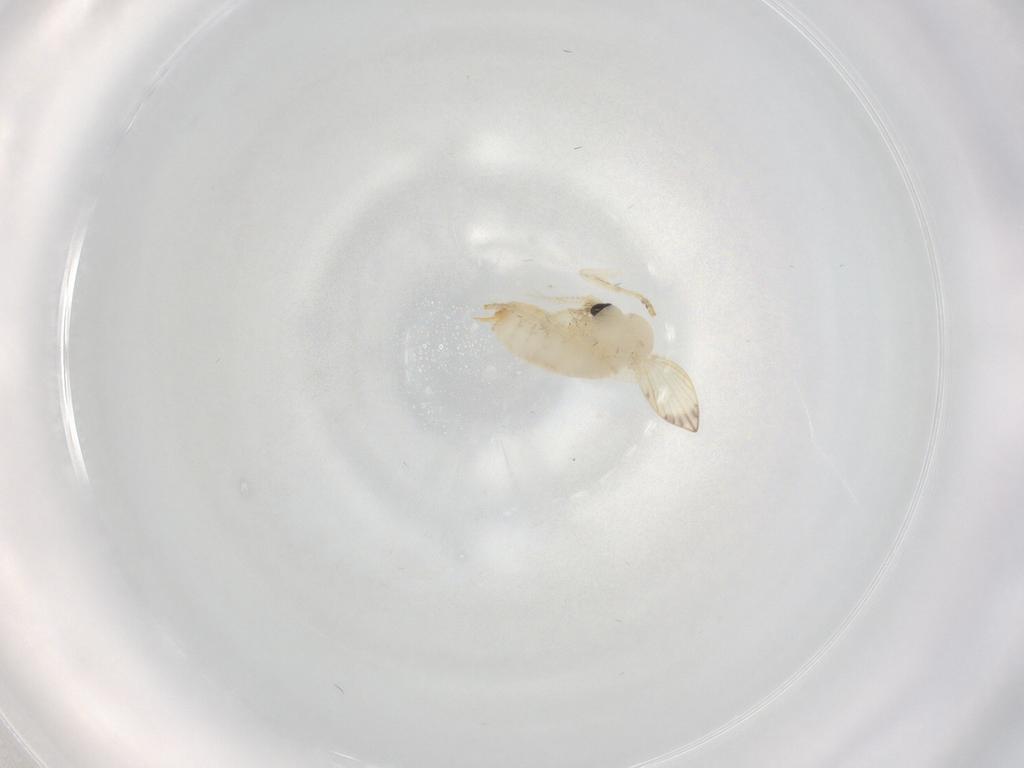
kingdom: Animalia
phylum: Arthropoda
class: Insecta
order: Diptera
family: Psychodidae
